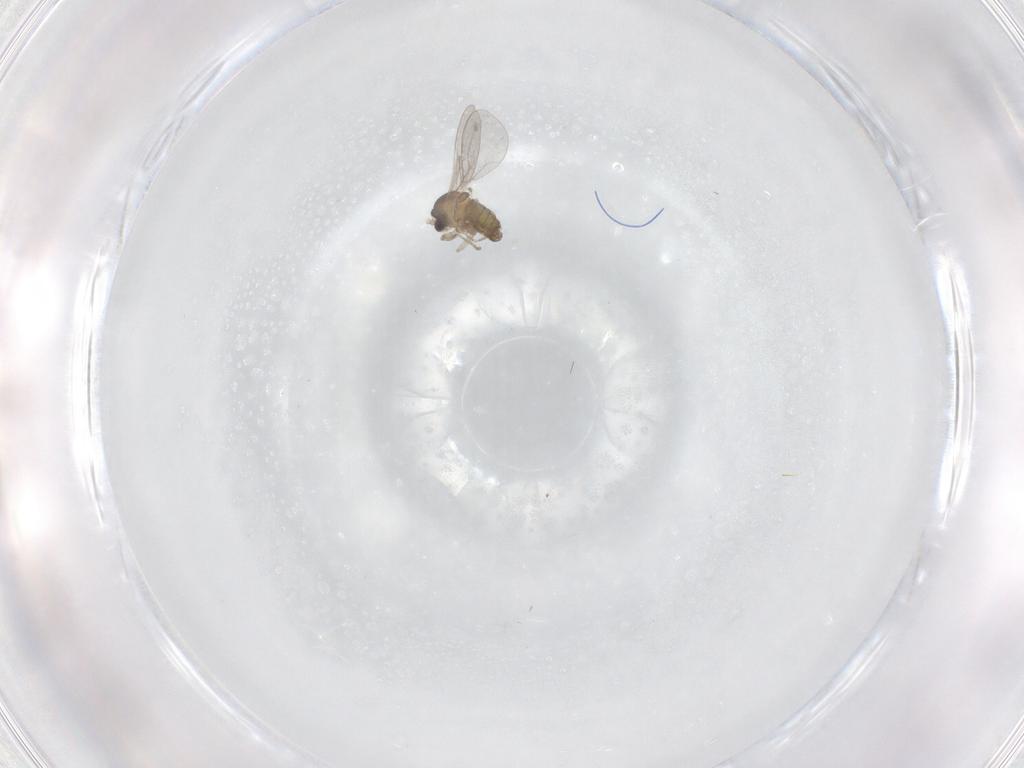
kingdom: Animalia
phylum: Arthropoda
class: Insecta
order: Diptera
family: Cecidomyiidae
